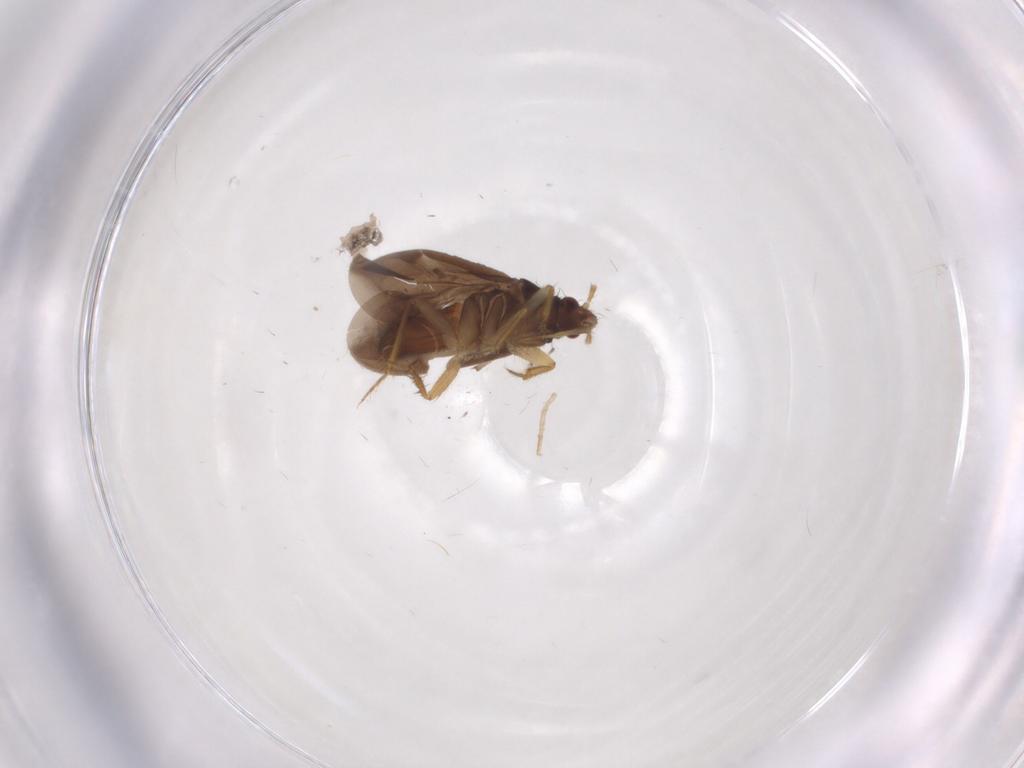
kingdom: Animalia
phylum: Arthropoda
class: Insecta
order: Hemiptera
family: Ceratocombidae
